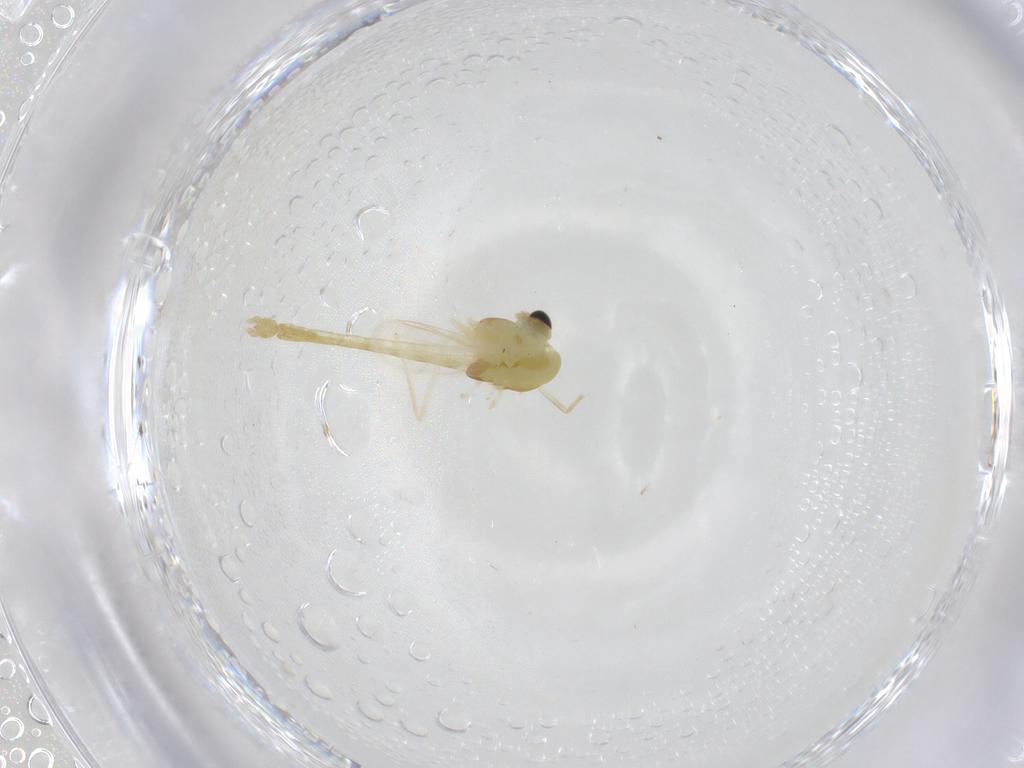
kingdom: Animalia
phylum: Arthropoda
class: Insecta
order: Diptera
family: Chironomidae
